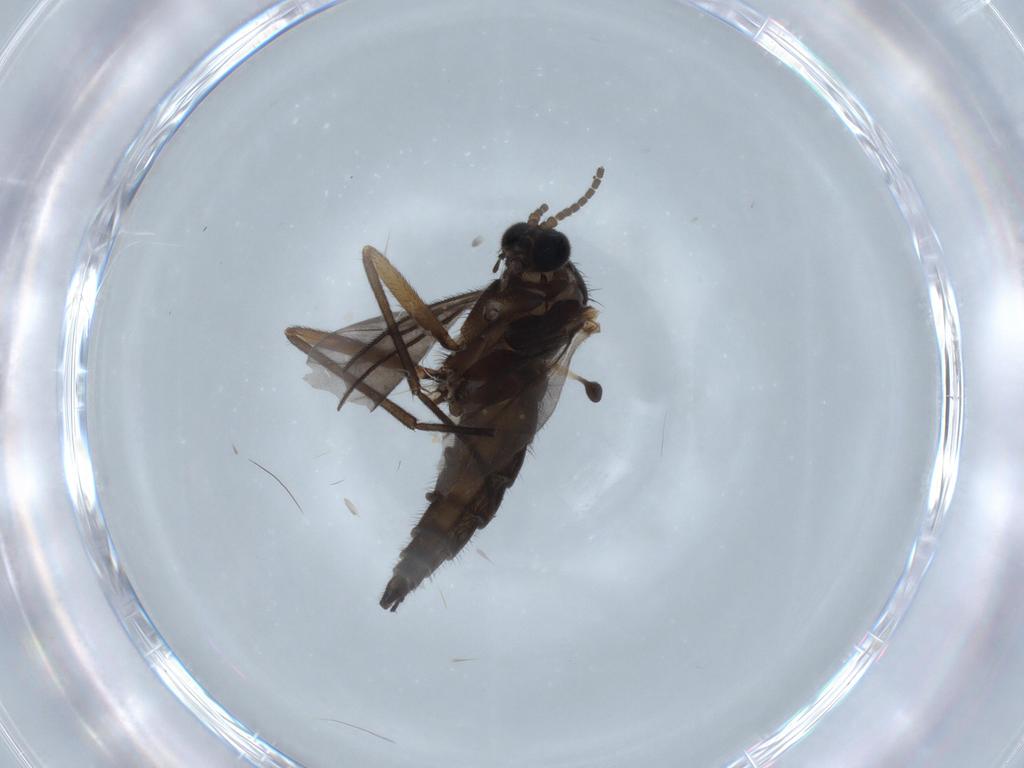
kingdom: Animalia
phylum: Arthropoda
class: Insecta
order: Diptera
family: Sciaridae
